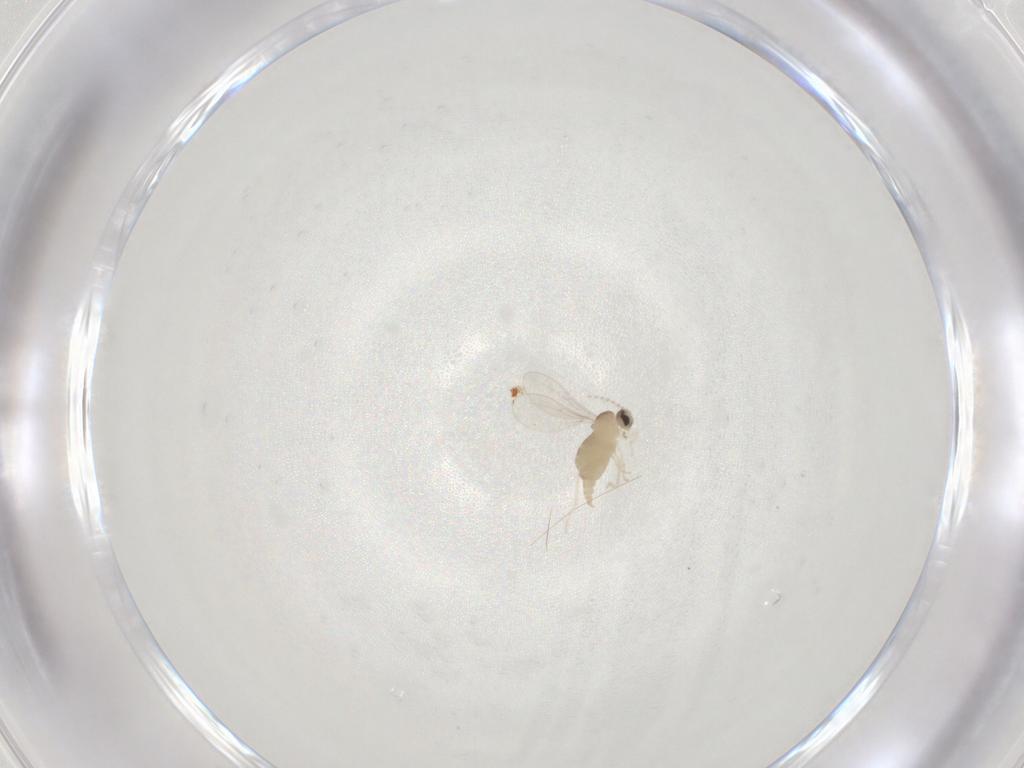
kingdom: Animalia
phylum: Arthropoda
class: Insecta
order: Diptera
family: Cecidomyiidae
